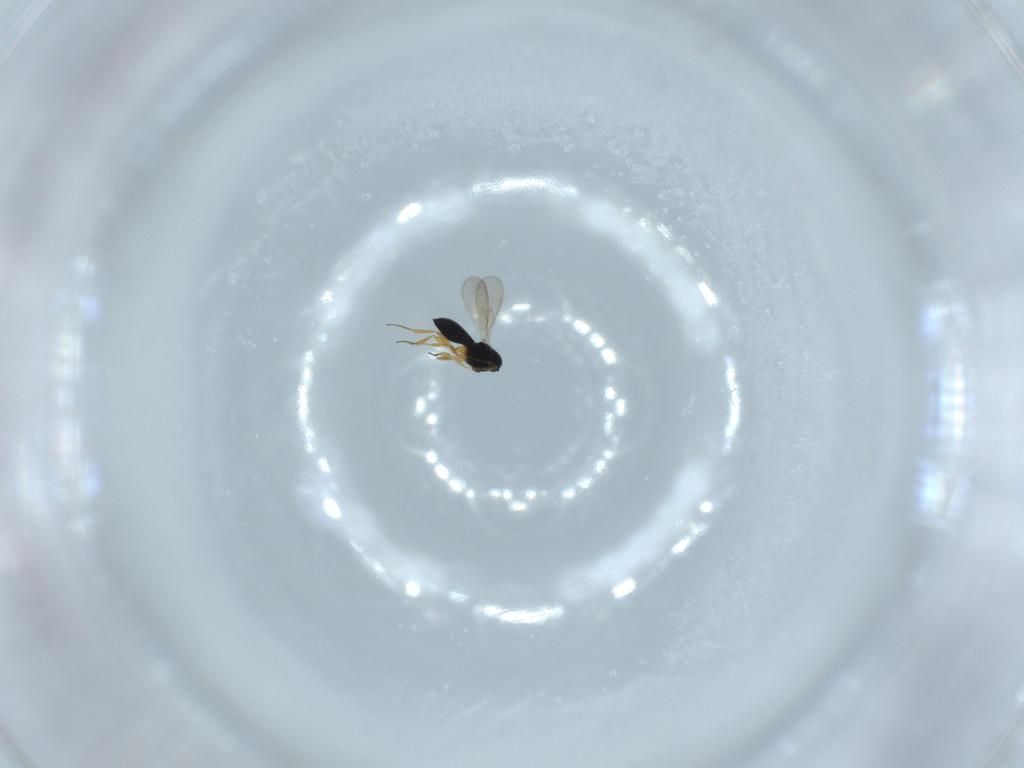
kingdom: Animalia
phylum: Arthropoda
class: Insecta
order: Hymenoptera
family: Scelionidae
